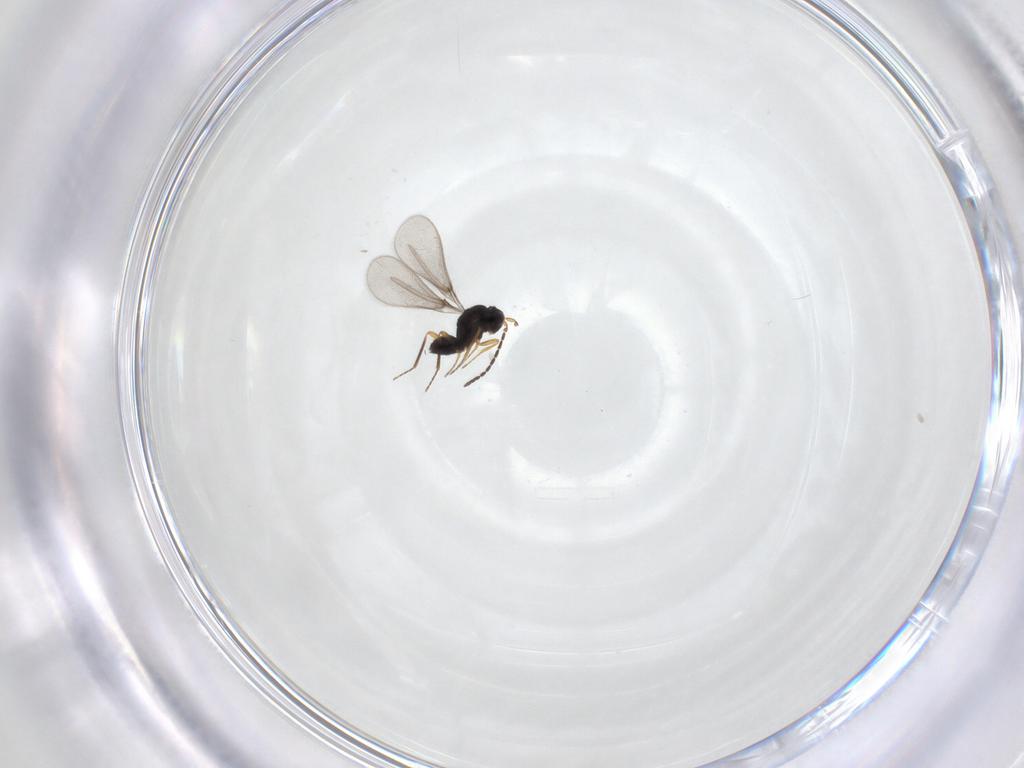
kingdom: Animalia
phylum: Arthropoda
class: Insecta
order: Hymenoptera
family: Mymaridae
